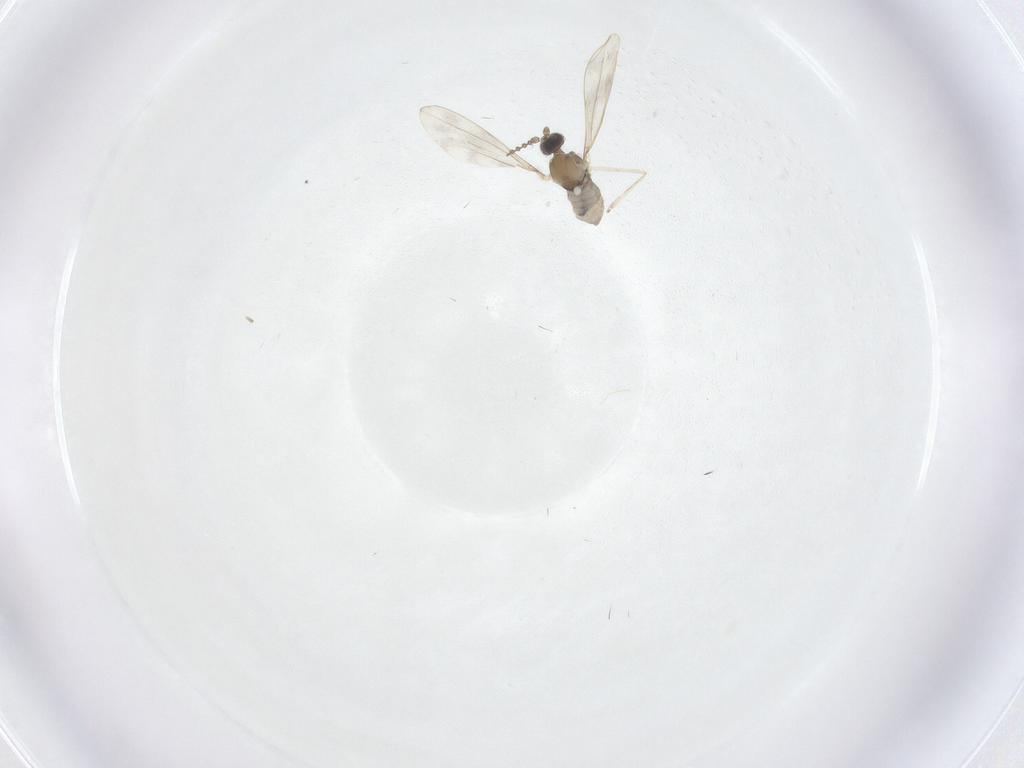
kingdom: Animalia
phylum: Arthropoda
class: Insecta
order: Diptera
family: Cecidomyiidae
